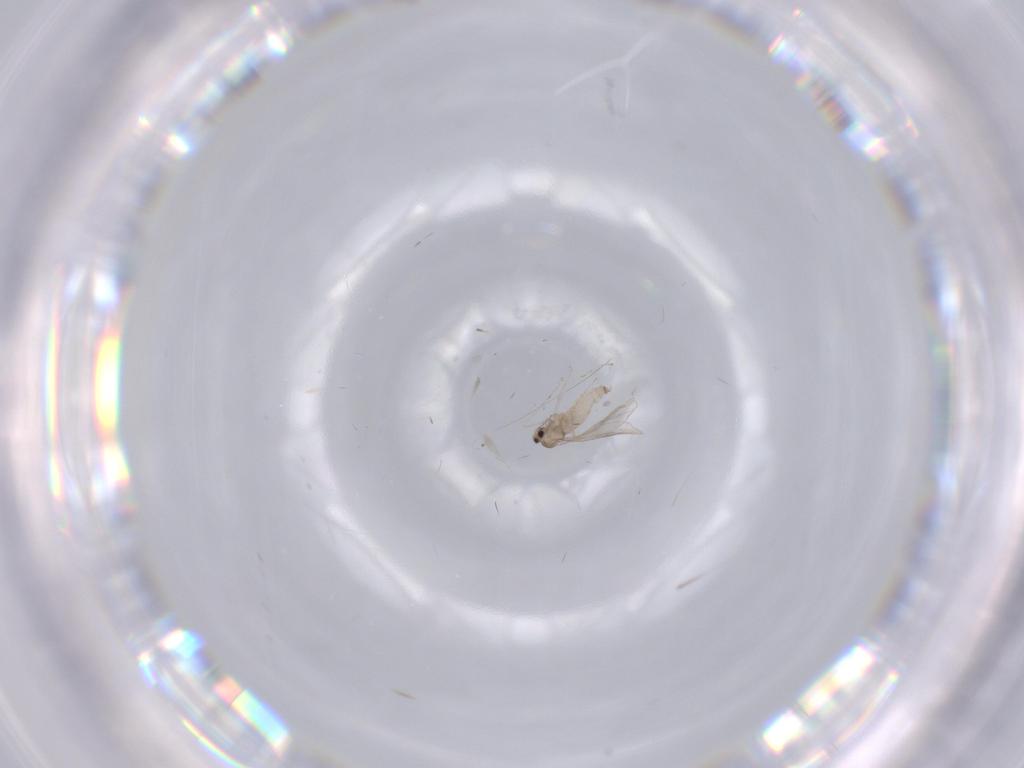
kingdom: Animalia
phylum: Arthropoda
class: Insecta
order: Diptera
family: Cecidomyiidae
